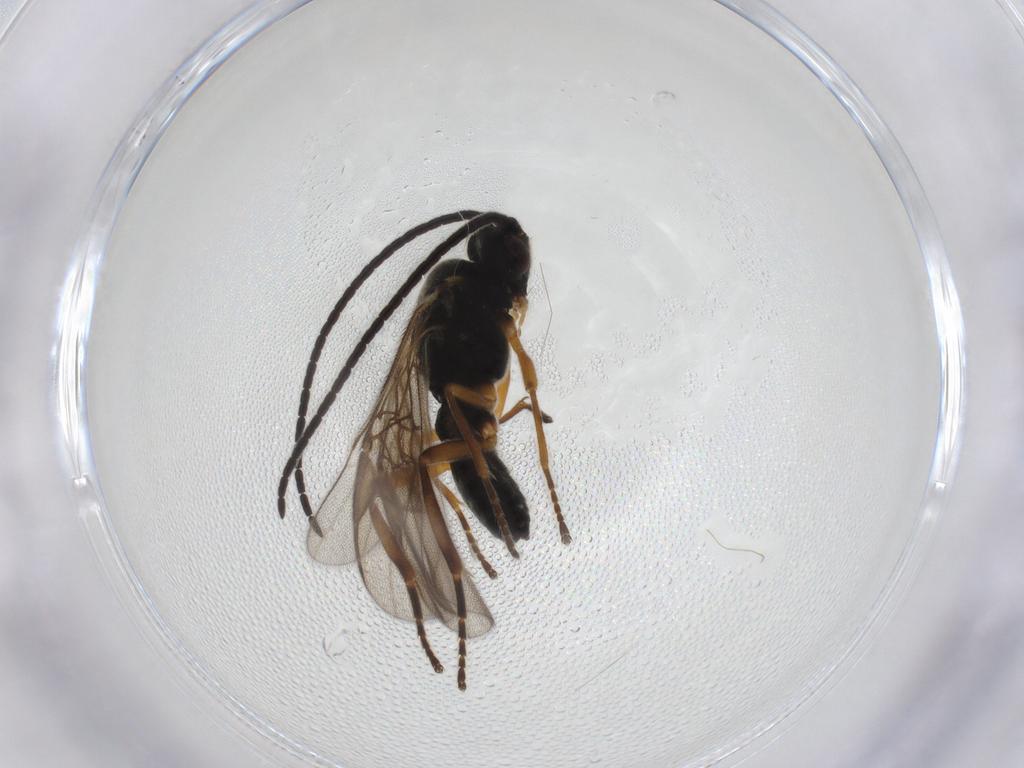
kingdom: Animalia
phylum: Arthropoda
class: Insecta
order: Hymenoptera
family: Braconidae
